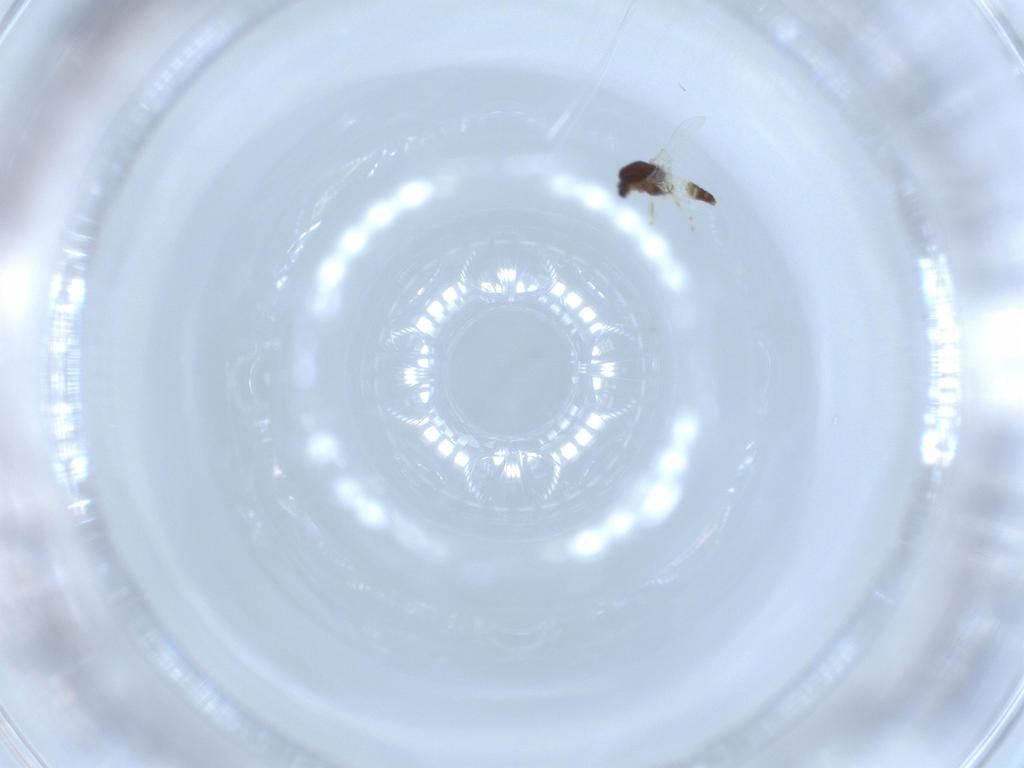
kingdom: Animalia
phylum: Arthropoda
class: Insecta
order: Diptera
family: Chironomidae
